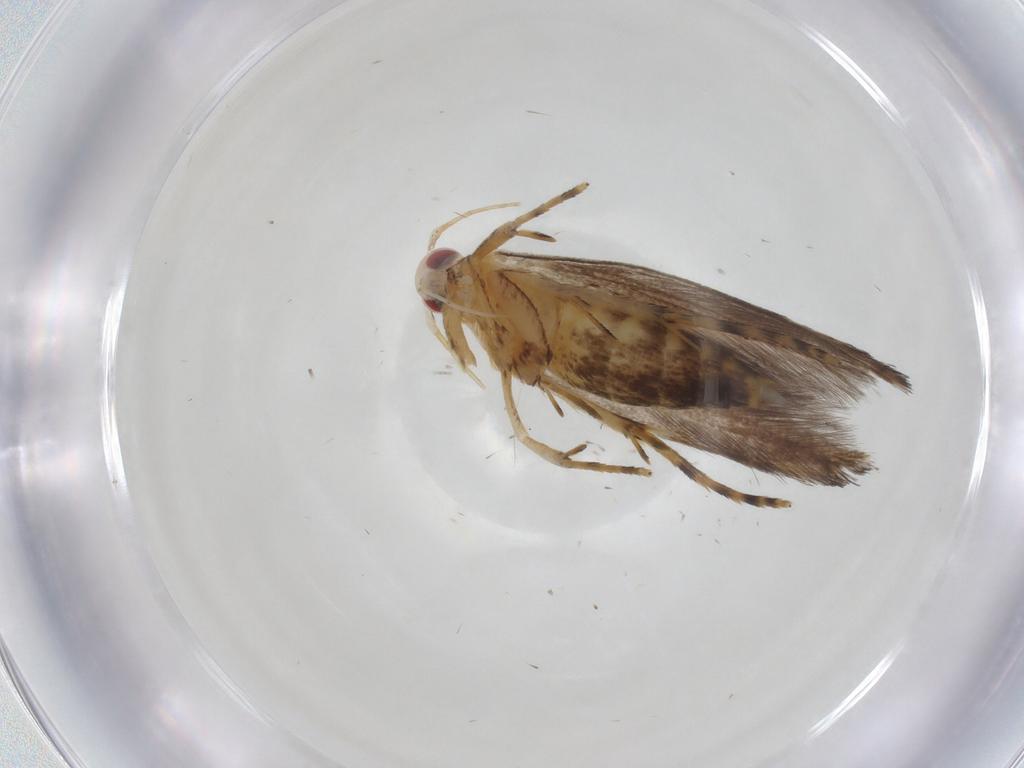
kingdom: Animalia
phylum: Arthropoda
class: Insecta
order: Lepidoptera
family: Cosmopterigidae
